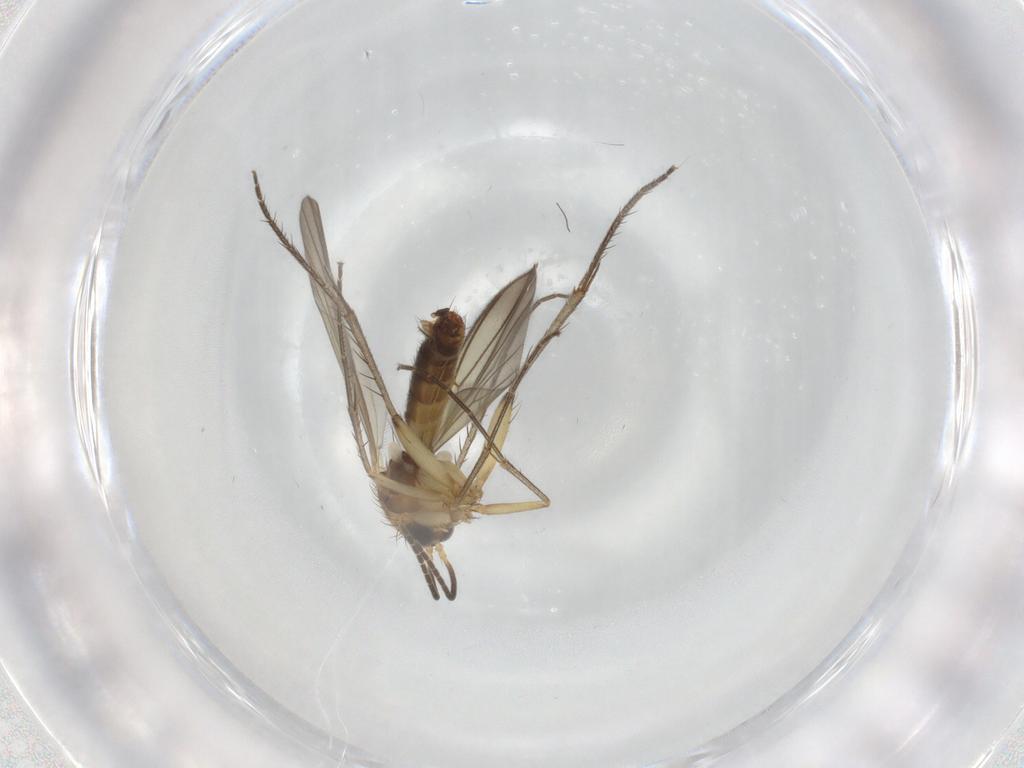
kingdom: Animalia
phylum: Arthropoda
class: Insecta
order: Diptera
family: Mycetophilidae
